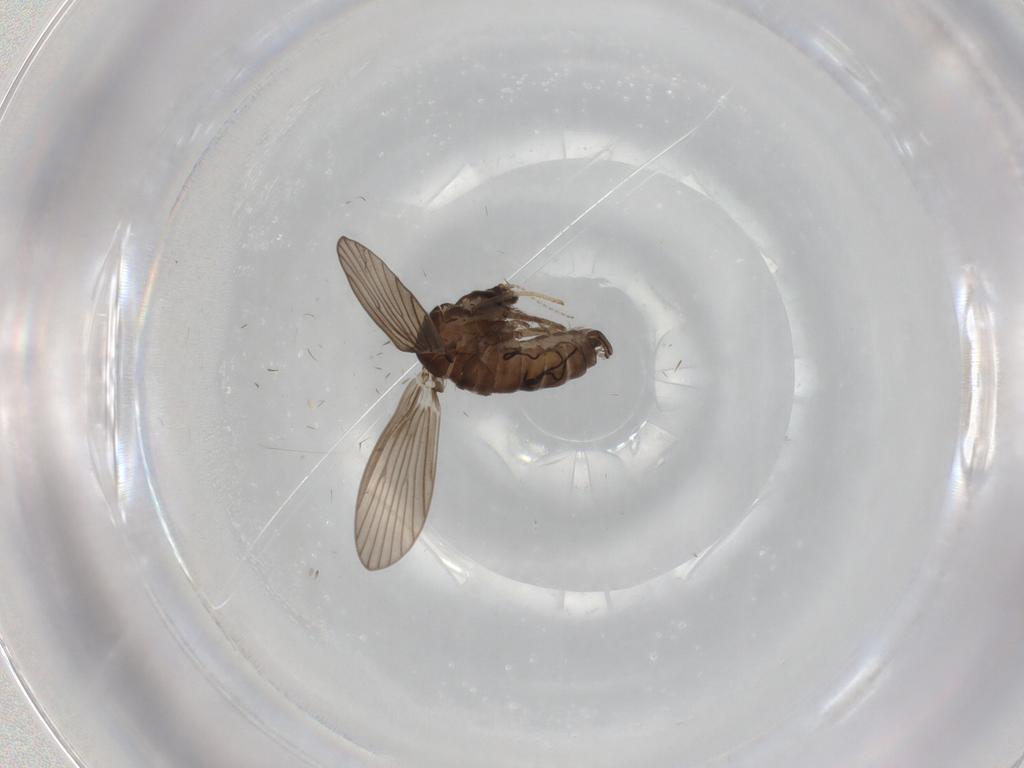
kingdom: Animalia
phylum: Arthropoda
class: Insecta
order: Diptera
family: Psychodidae
